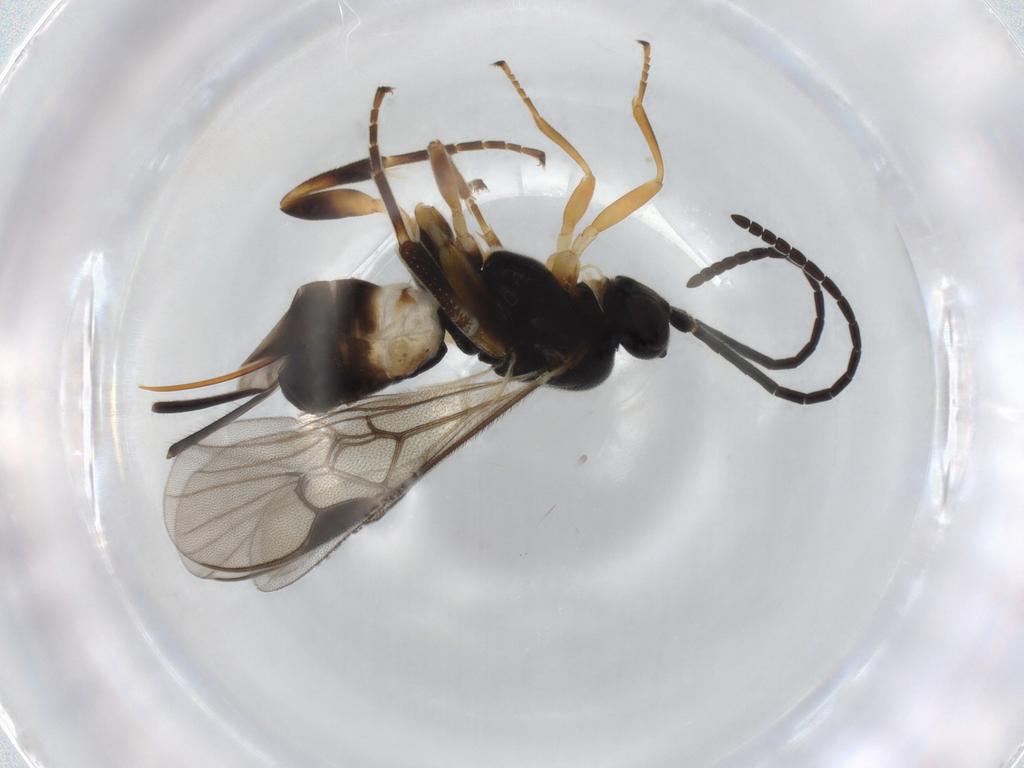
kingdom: Animalia
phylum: Arthropoda
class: Insecta
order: Hymenoptera
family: Braconidae
